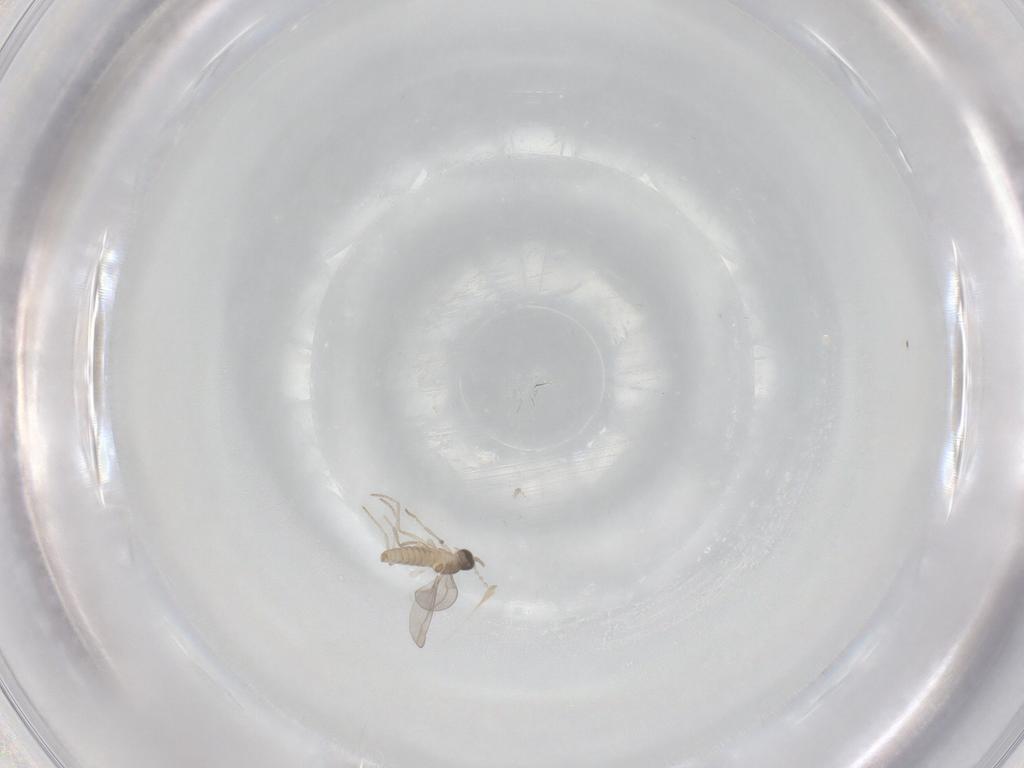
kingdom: Animalia
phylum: Arthropoda
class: Insecta
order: Diptera
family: Cecidomyiidae
